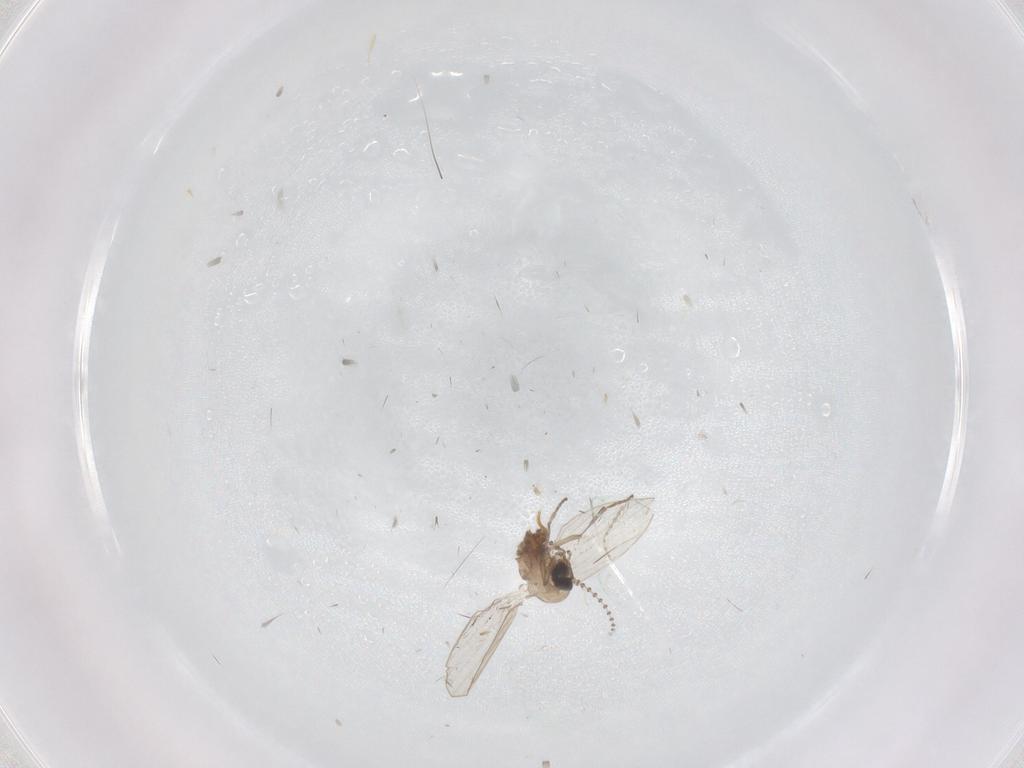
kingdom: Animalia
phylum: Arthropoda
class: Insecta
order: Diptera
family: Psychodidae
